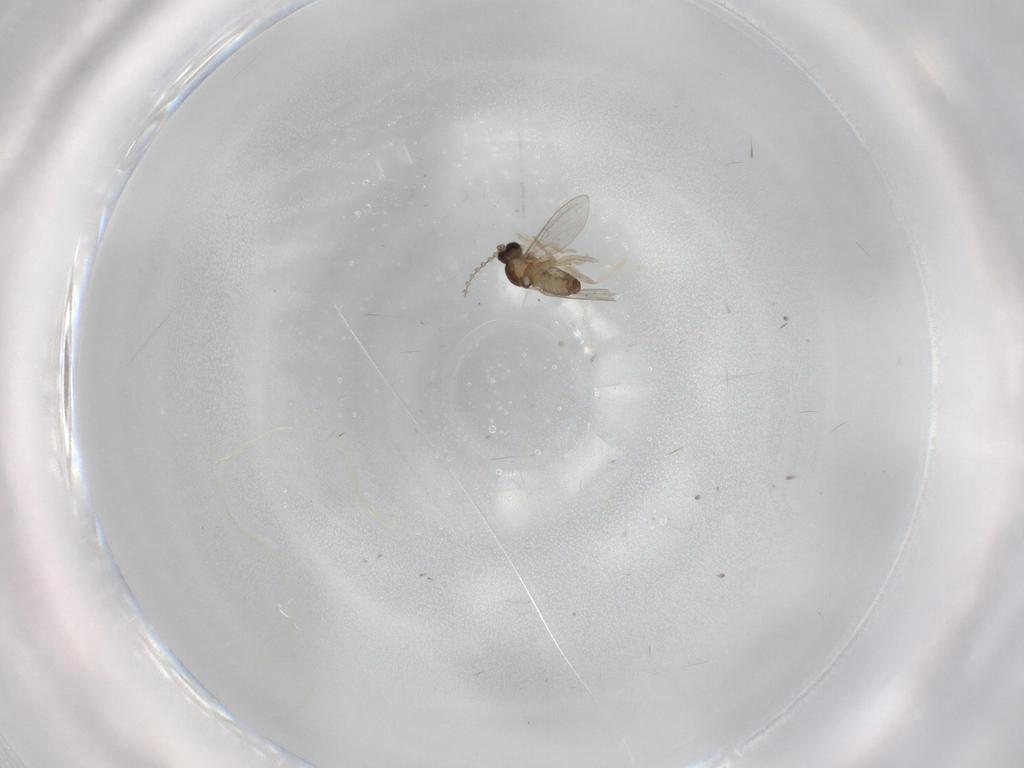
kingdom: Animalia
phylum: Arthropoda
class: Insecta
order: Diptera
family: Cecidomyiidae
